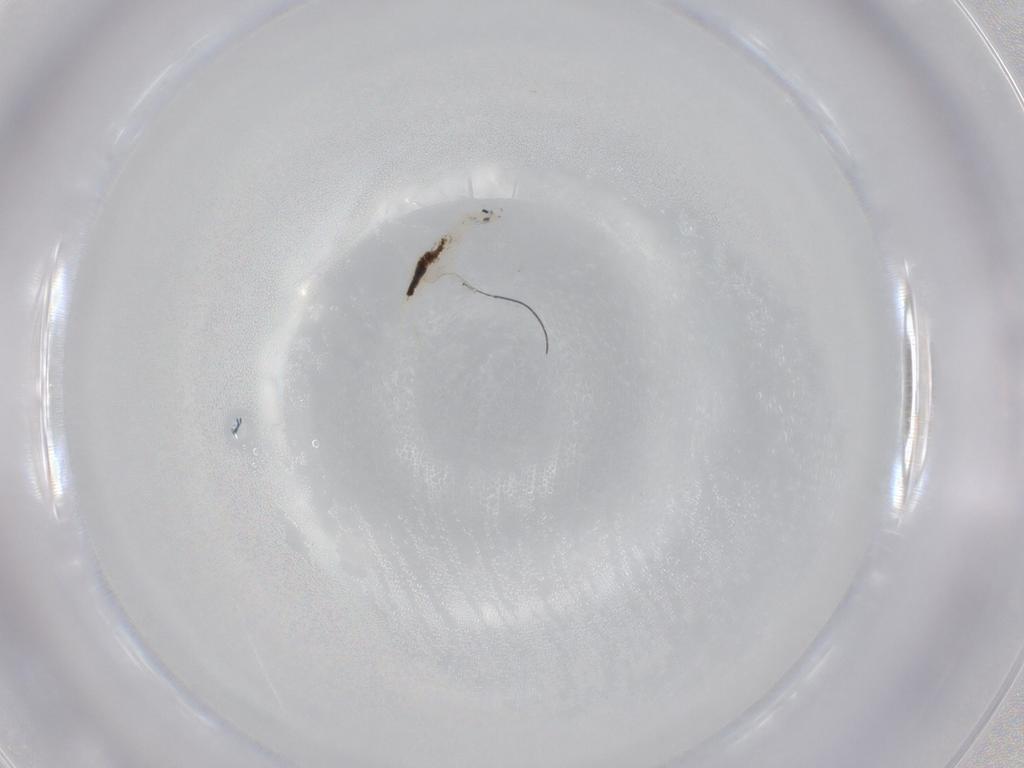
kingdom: Animalia
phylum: Arthropoda
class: Collembola
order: Entomobryomorpha
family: Entomobryidae
